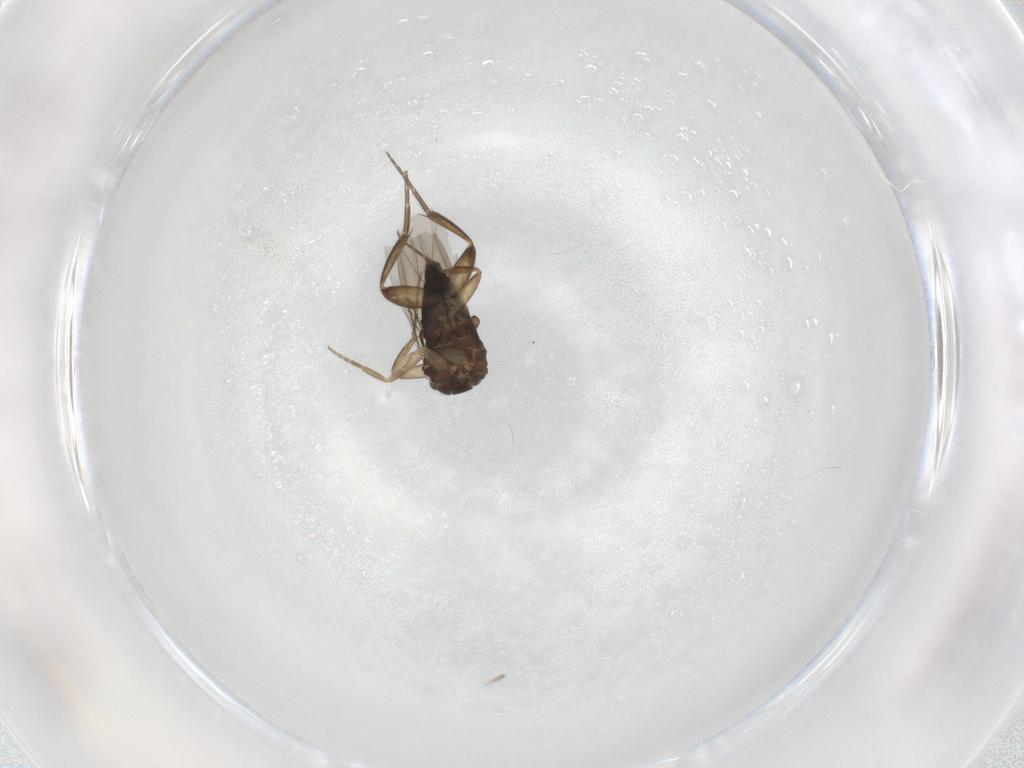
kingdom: Animalia
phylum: Arthropoda
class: Insecta
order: Diptera
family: Phoridae
